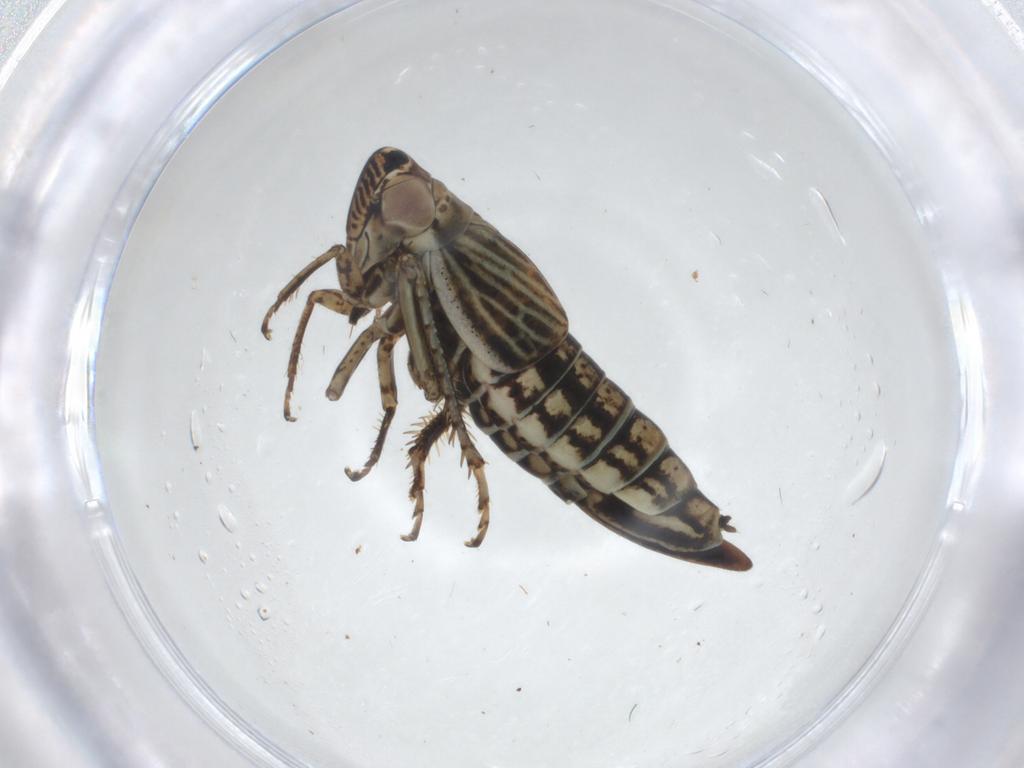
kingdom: Animalia
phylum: Arthropoda
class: Insecta
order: Hemiptera
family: Cicadellidae
